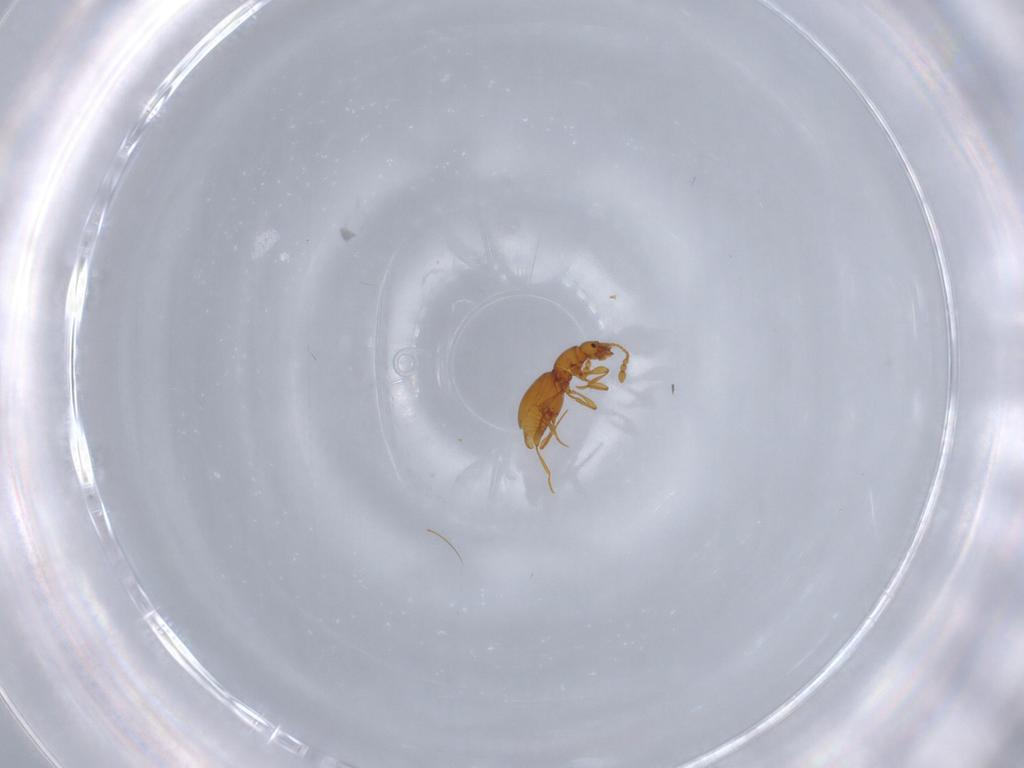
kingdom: Animalia
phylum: Arthropoda
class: Insecta
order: Coleoptera
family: Staphylinidae
